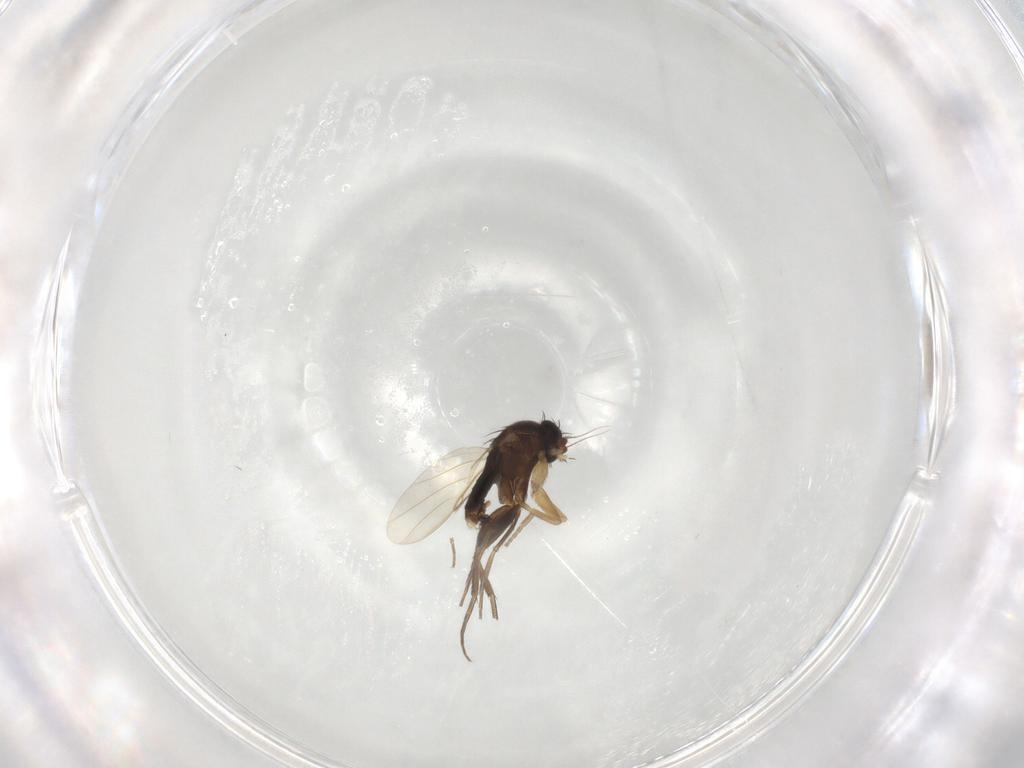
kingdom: Animalia
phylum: Arthropoda
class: Insecta
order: Diptera
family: Phoridae
